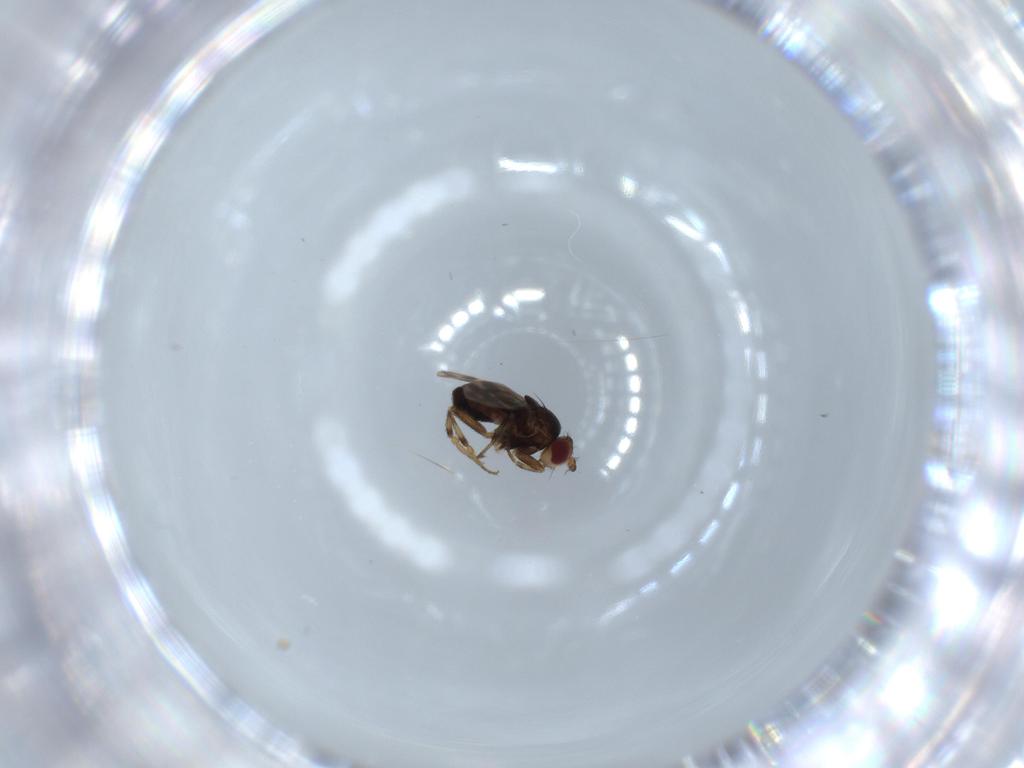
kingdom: Animalia
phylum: Arthropoda
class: Insecta
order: Diptera
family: Sphaeroceridae
